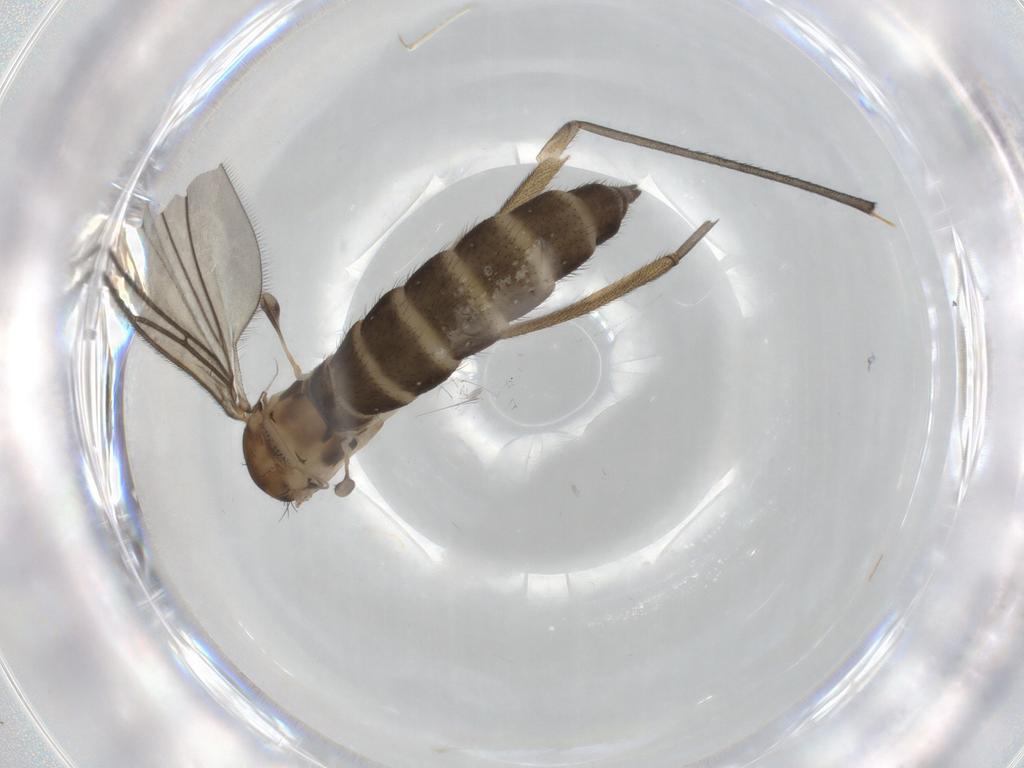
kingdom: Animalia
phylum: Arthropoda
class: Insecta
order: Diptera
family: Sciaridae
